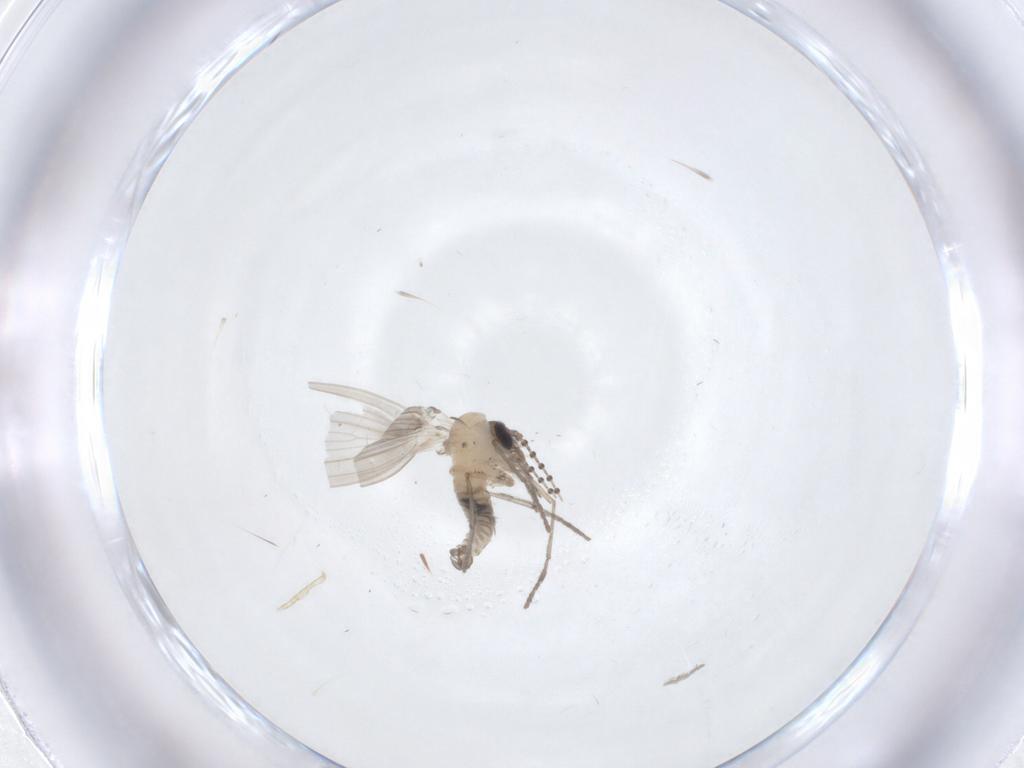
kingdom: Animalia
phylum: Arthropoda
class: Insecta
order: Diptera
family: Psychodidae
